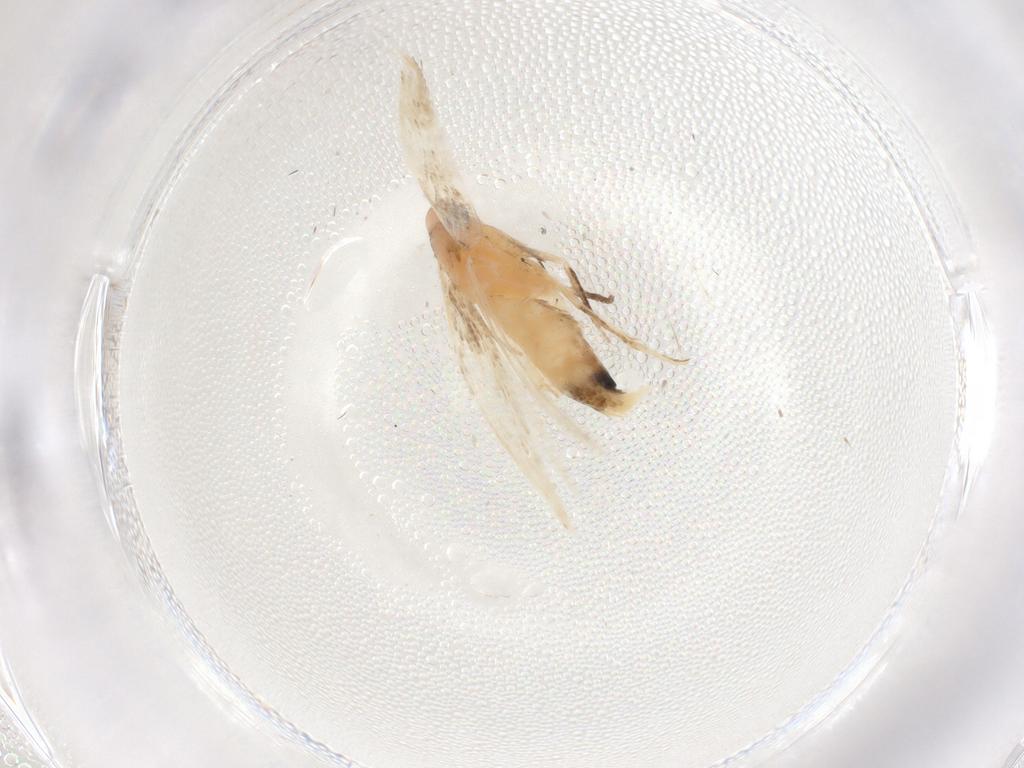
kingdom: Animalia
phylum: Arthropoda
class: Insecta
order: Lepidoptera
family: Cosmopterigidae
